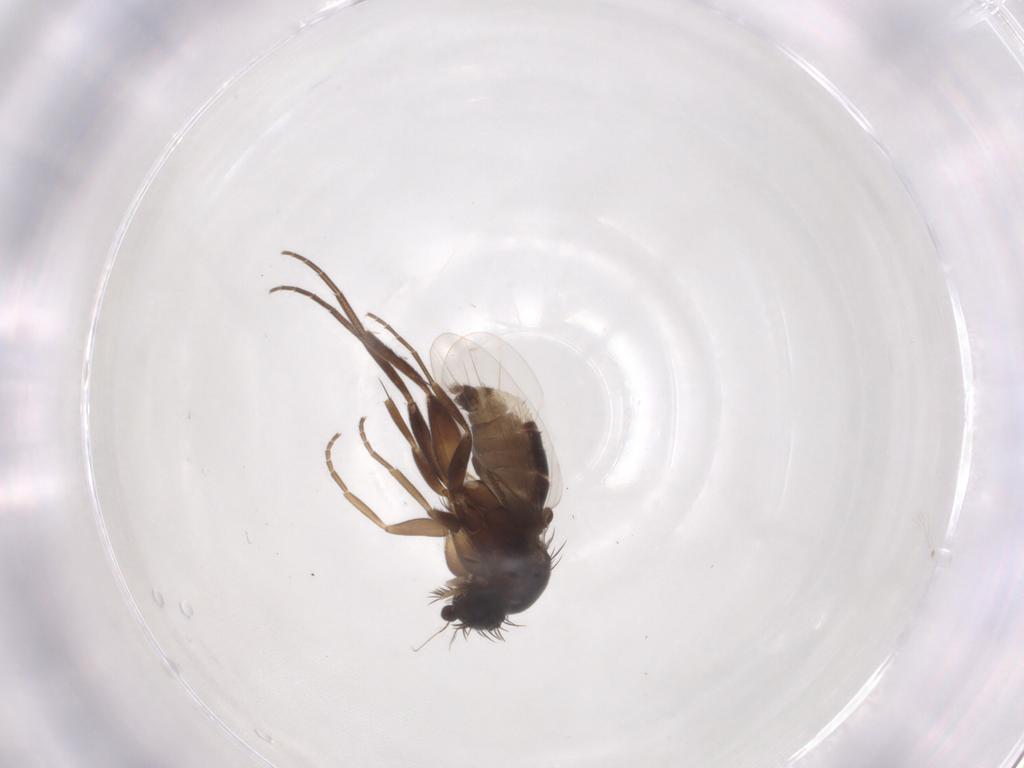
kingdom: Animalia
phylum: Arthropoda
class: Insecta
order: Diptera
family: Phoridae
